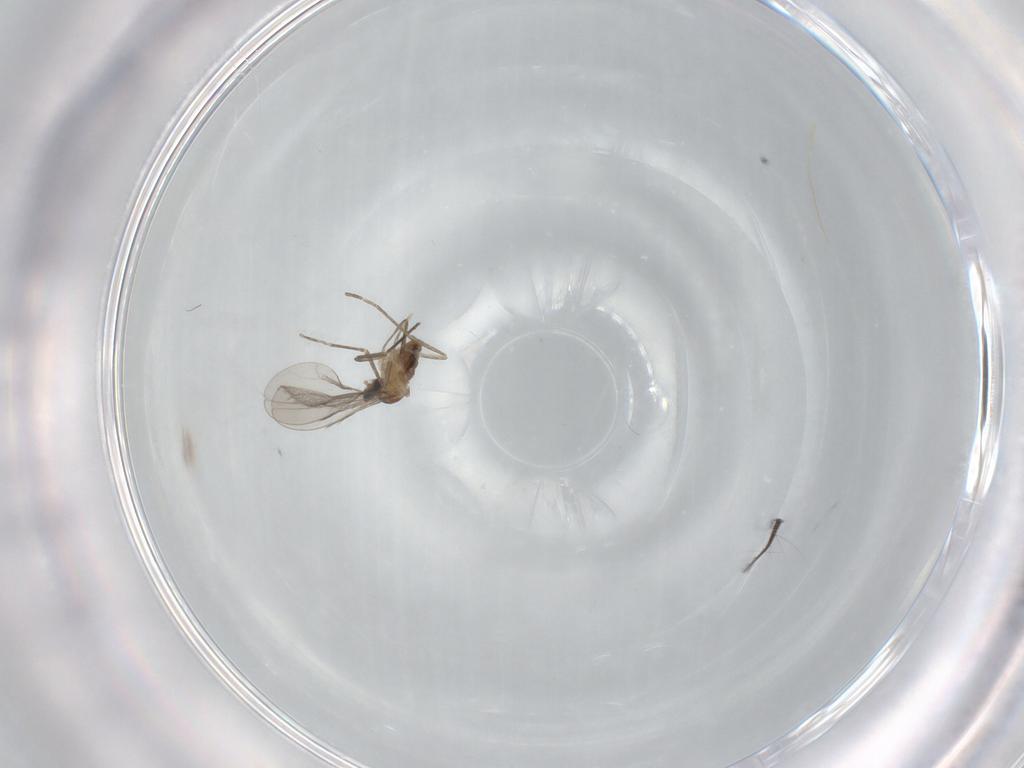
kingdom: Animalia
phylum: Arthropoda
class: Insecta
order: Diptera
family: Cecidomyiidae
